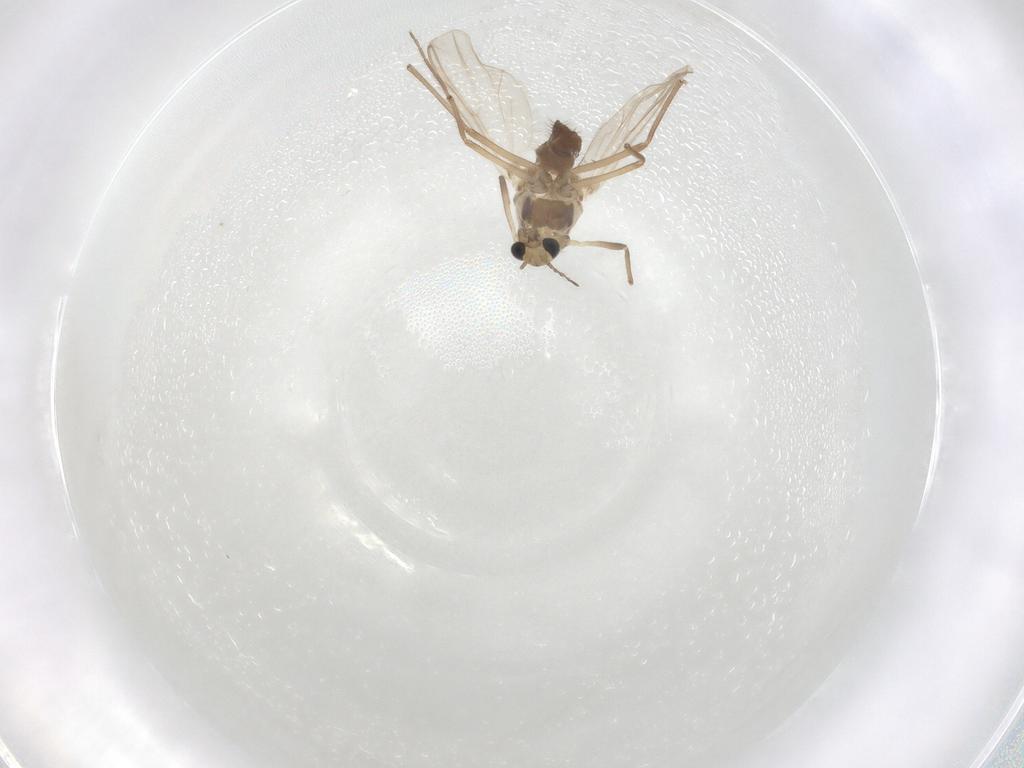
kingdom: Animalia
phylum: Arthropoda
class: Insecta
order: Diptera
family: Chironomidae
